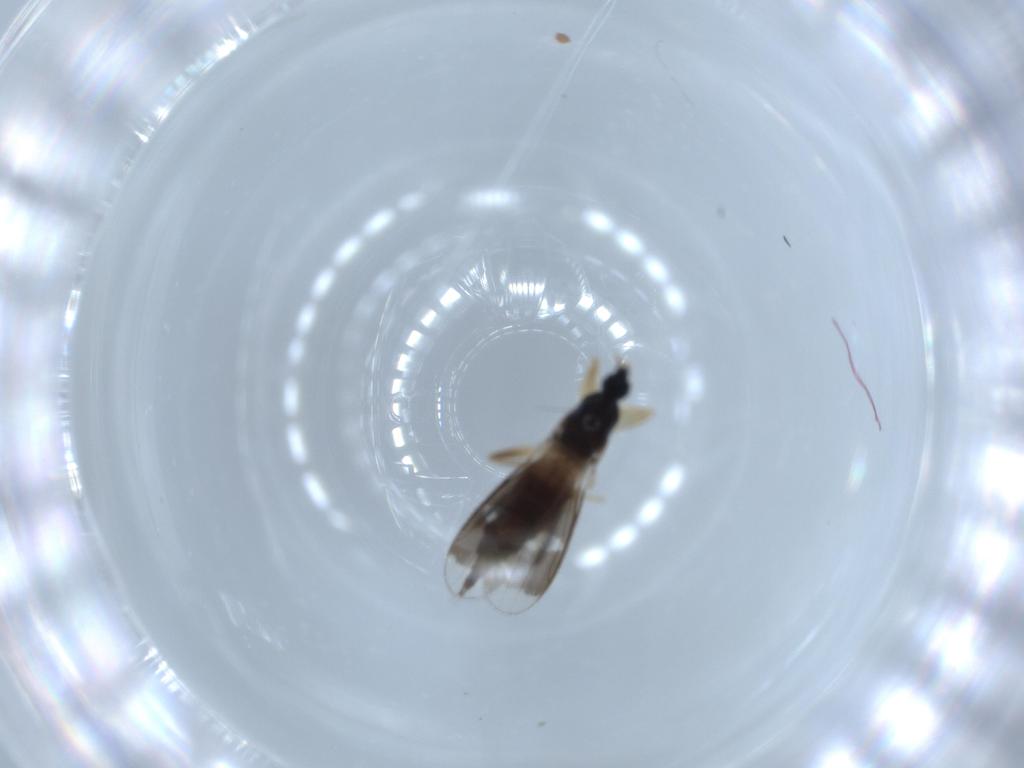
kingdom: Animalia
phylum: Arthropoda
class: Insecta
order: Diptera
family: Hybotidae
